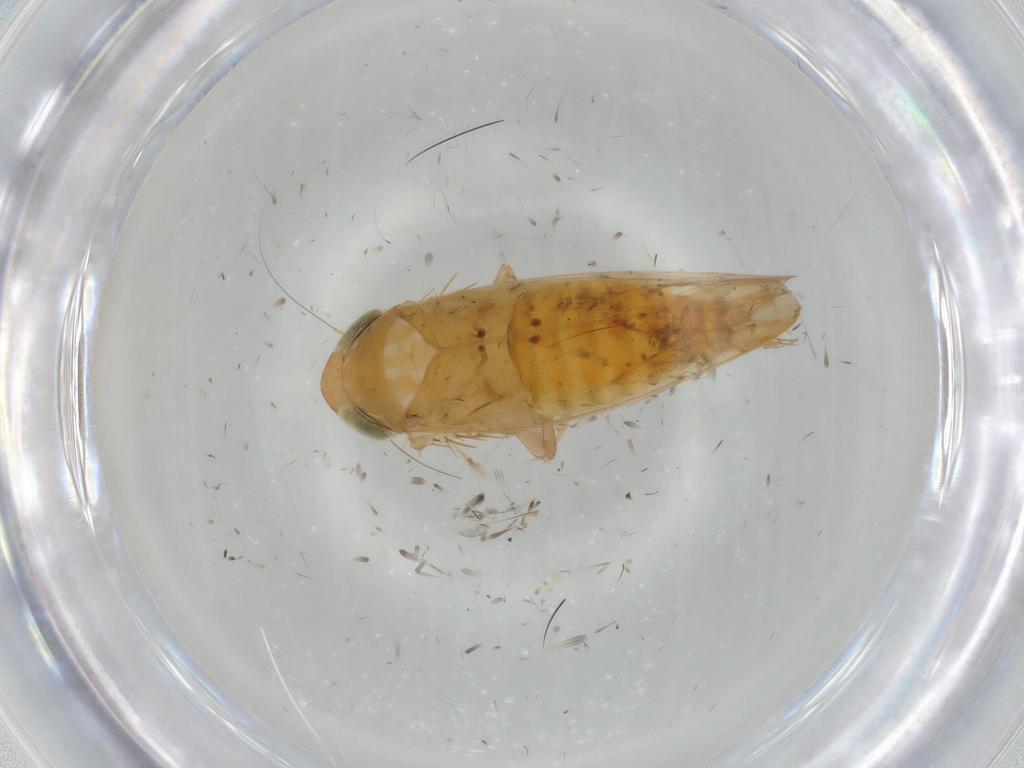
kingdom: Animalia
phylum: Arthropoda
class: Insecta
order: Hemiptera
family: Cicadellidae
